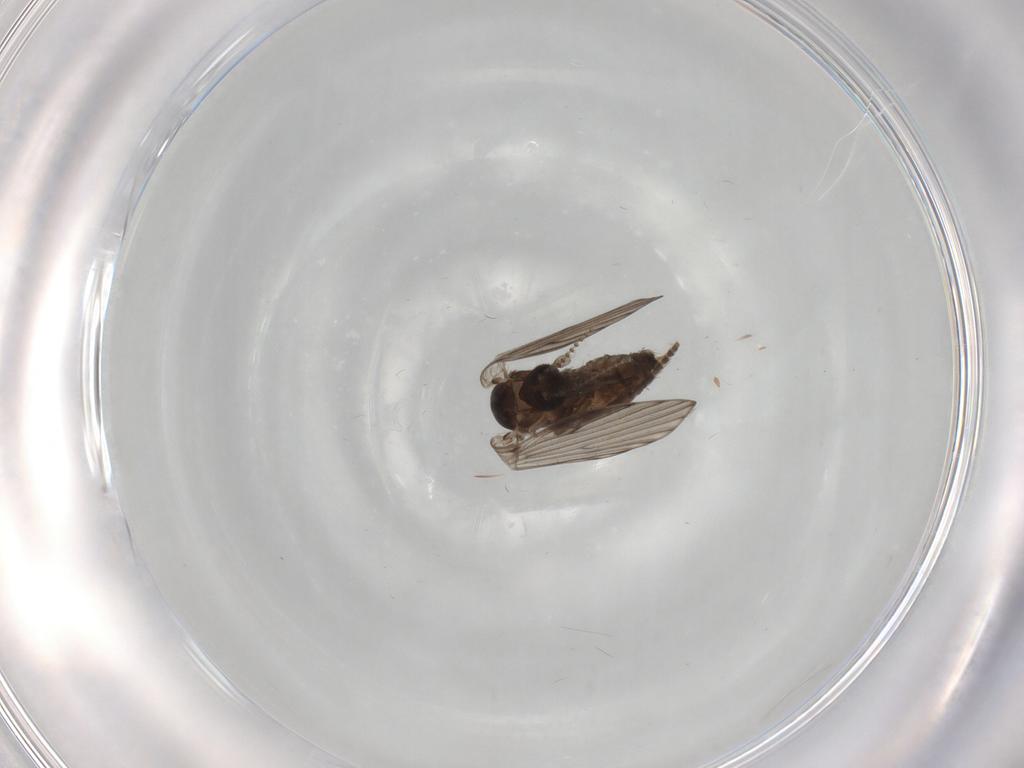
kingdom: Animalia
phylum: Arthropoda
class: Insecta
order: Diptera
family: Psychodidae
